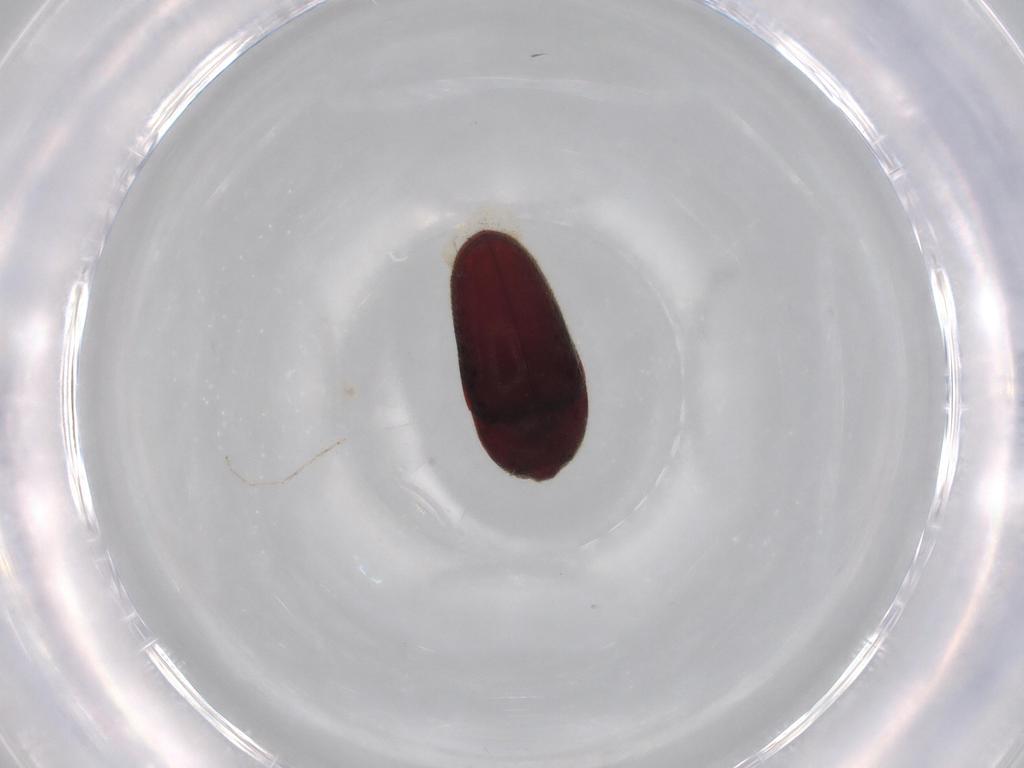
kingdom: Animalia
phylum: Arthropoda
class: Insecta
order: Coleoptera
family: Throscidae
